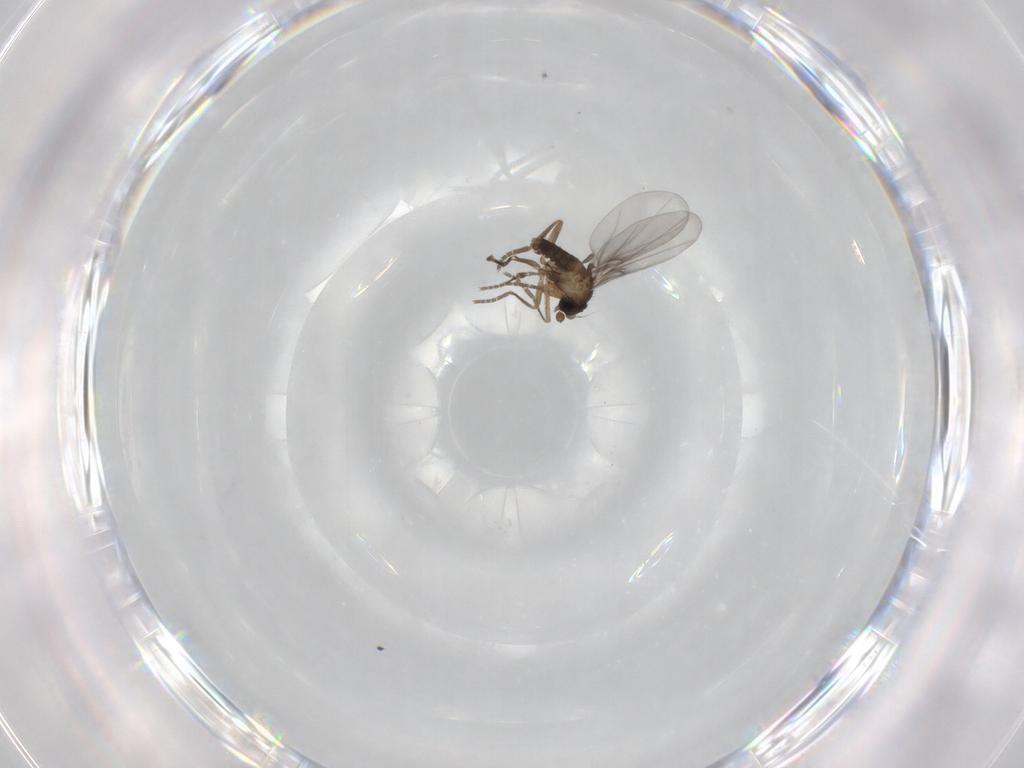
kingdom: Animalia
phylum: Arthropoda
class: Insecta
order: Diptera
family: Phoridae
